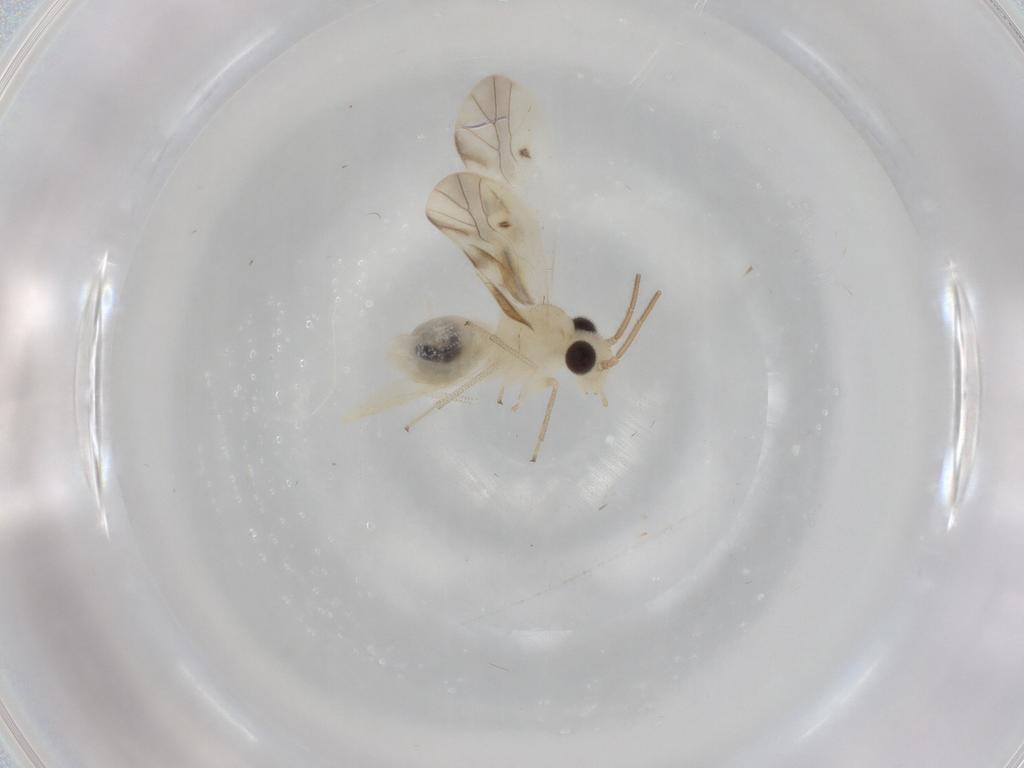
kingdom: Animalia
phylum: Arthropoda
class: Insecta
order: Psocodea
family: Caeciliusidae
